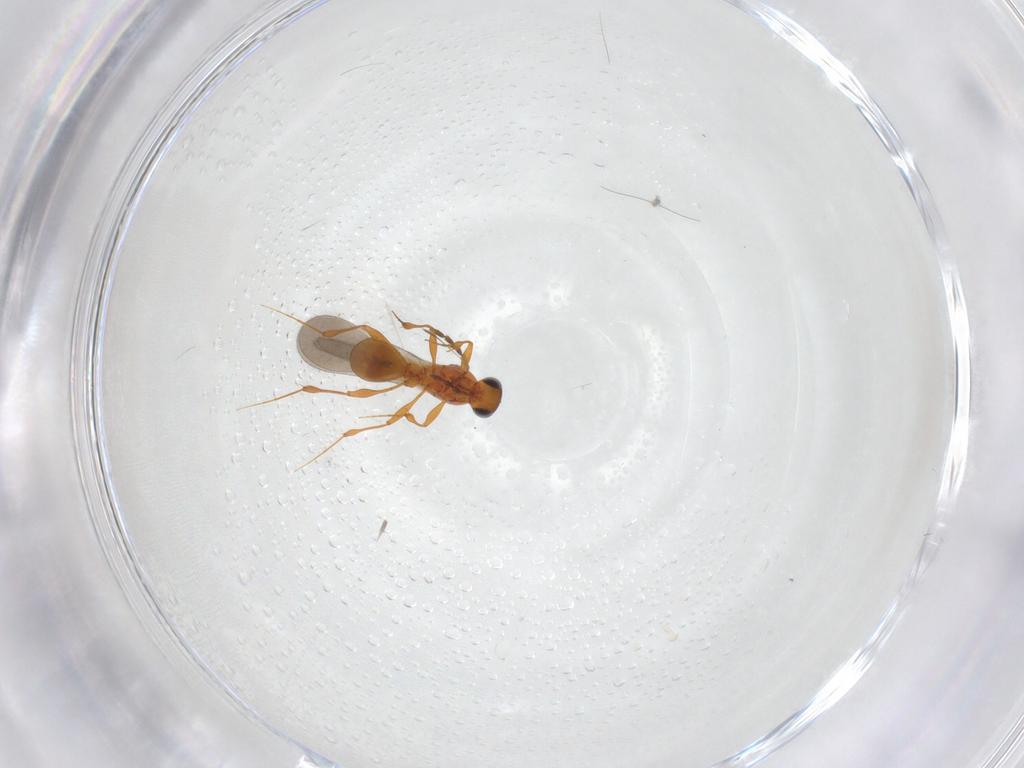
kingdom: Animalia
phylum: Arthropoda
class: Insecta
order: Hymenoptera
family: Platygastridae
